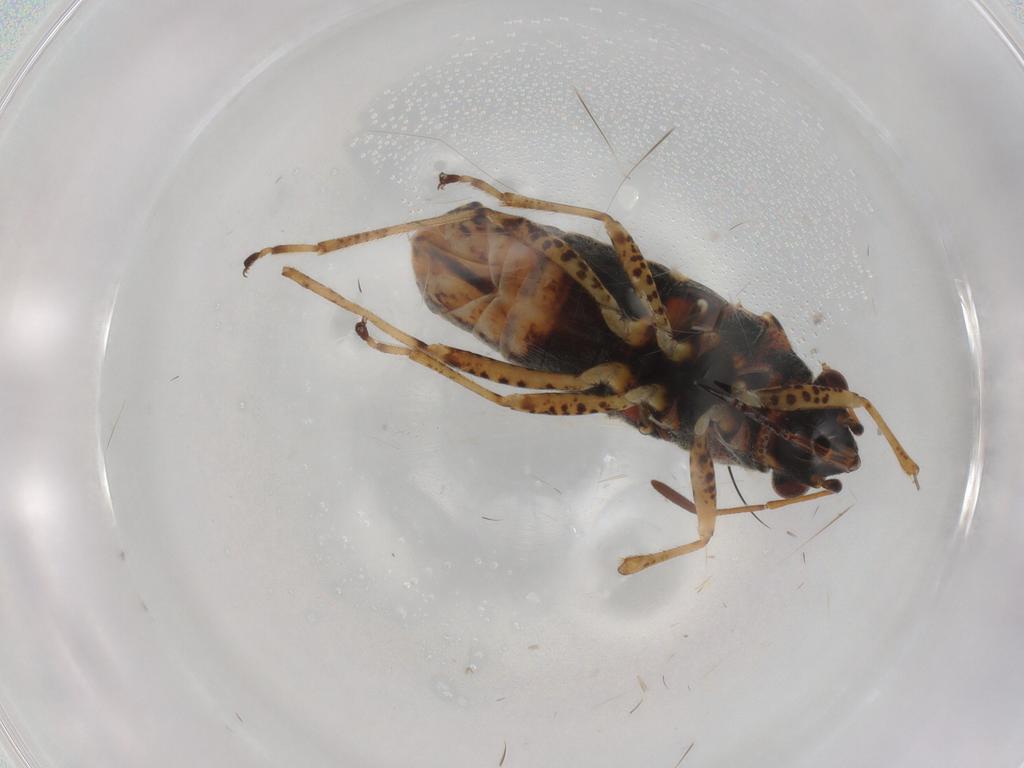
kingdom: Animalia
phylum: Arthropoda
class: Insecta
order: Hemiptera
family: Lygaeidae
